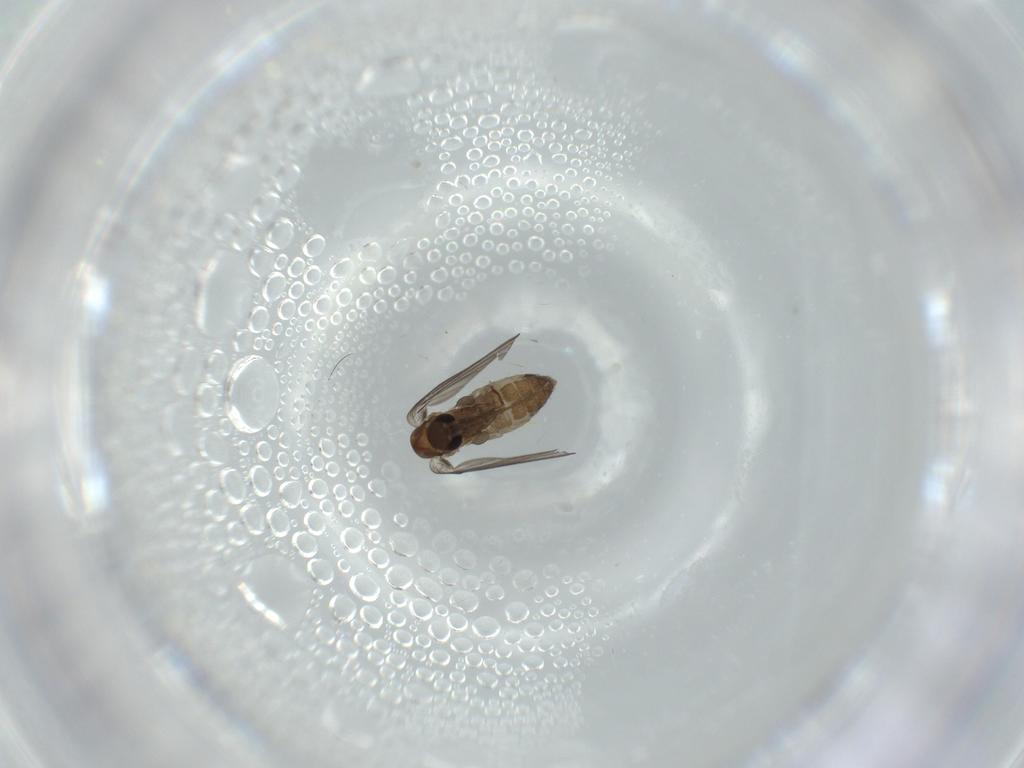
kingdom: Animalia
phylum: Arthropoda
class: Insecta
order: Diptera
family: Psychodidae
